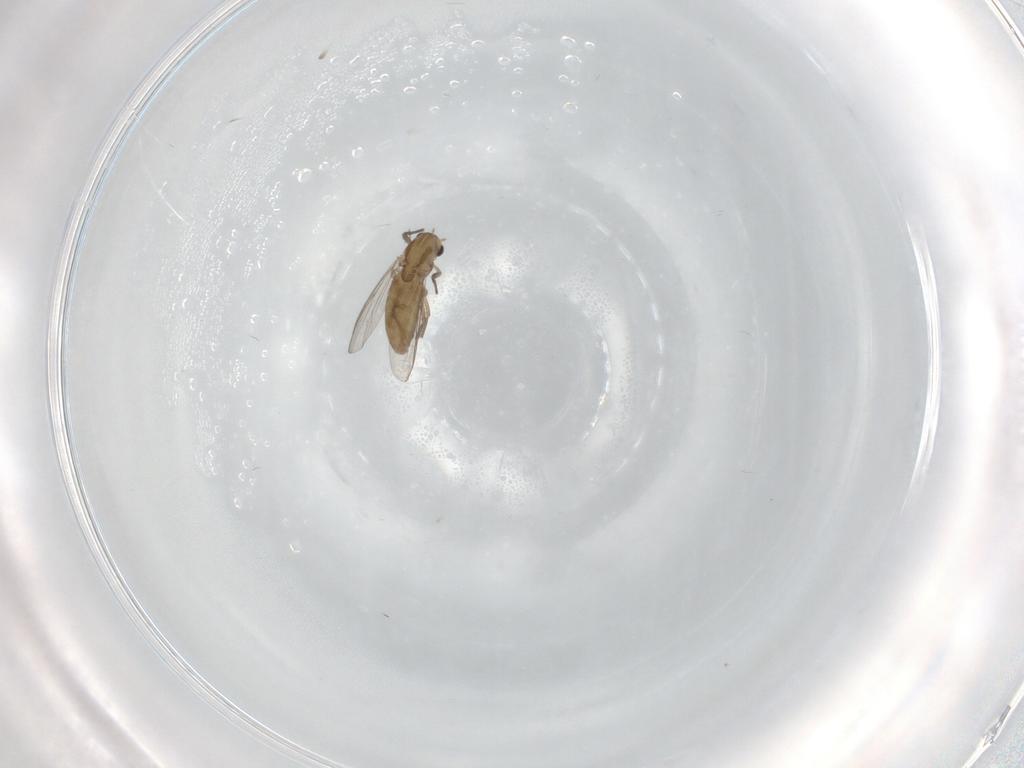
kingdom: Animalia
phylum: Arthropoda
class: Insecta
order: Diptera
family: Chironomidae
